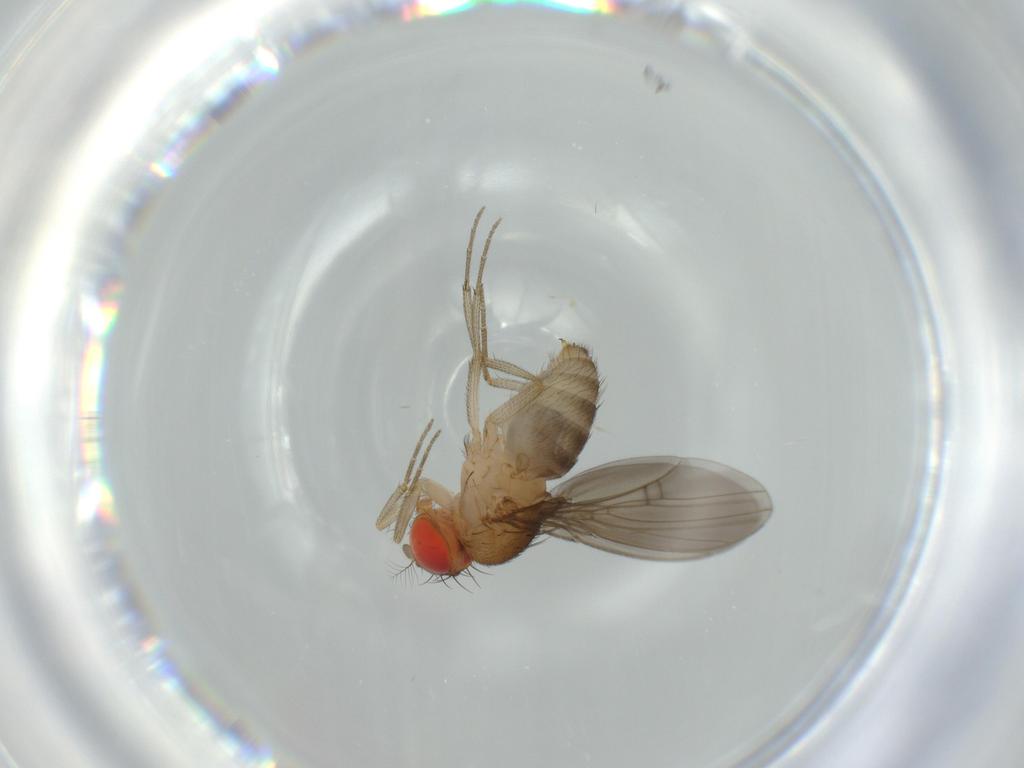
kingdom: Animalia
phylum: Arthropoda
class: Insecta
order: Diptera
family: Drosophilidae
